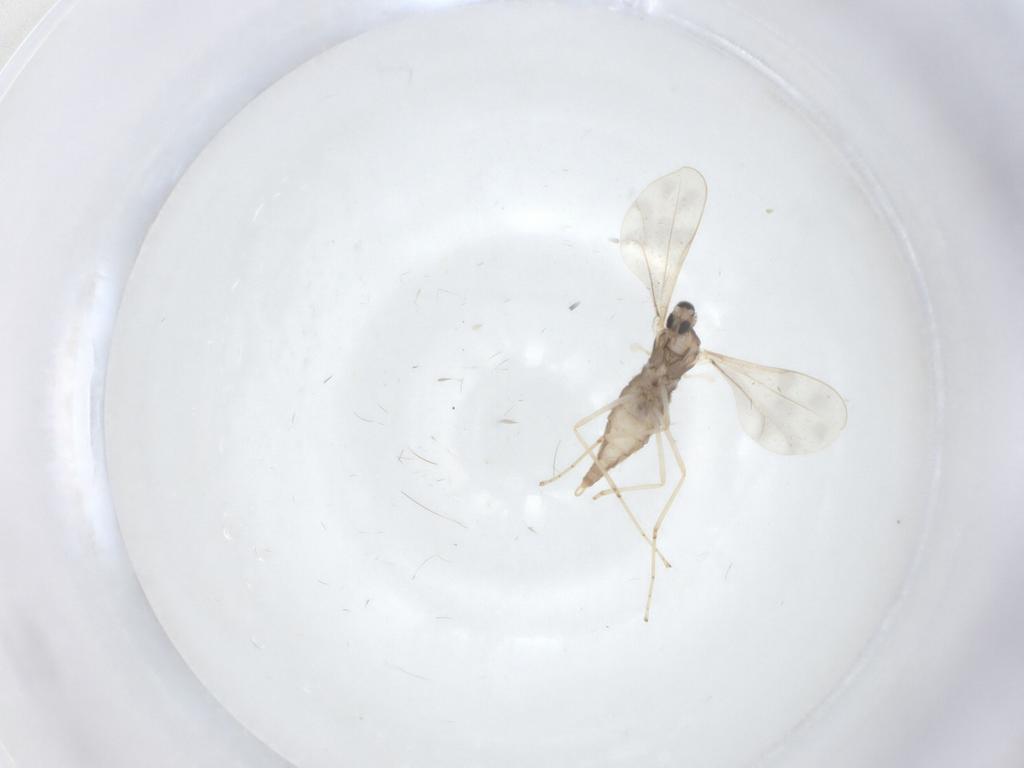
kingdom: Animalia
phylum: Arthropoda
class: Insecta
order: Diptera
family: Cecidomyiidae
